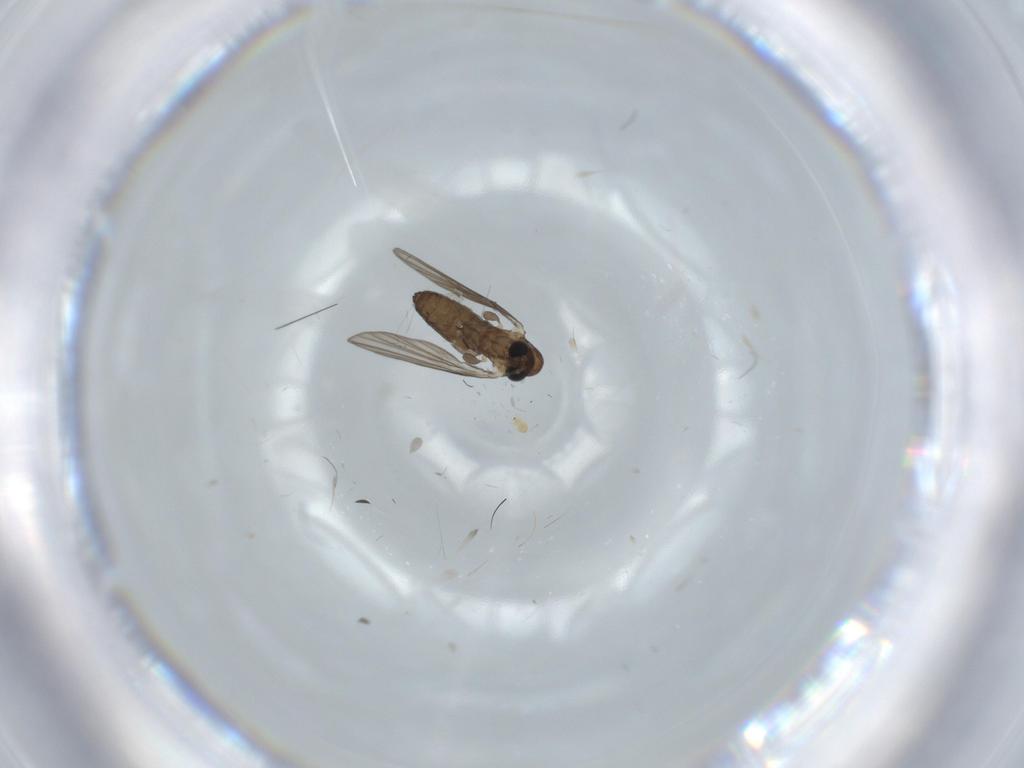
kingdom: Animalia
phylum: Arthropoda
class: Insecta
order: Diptera
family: Psychodidae
